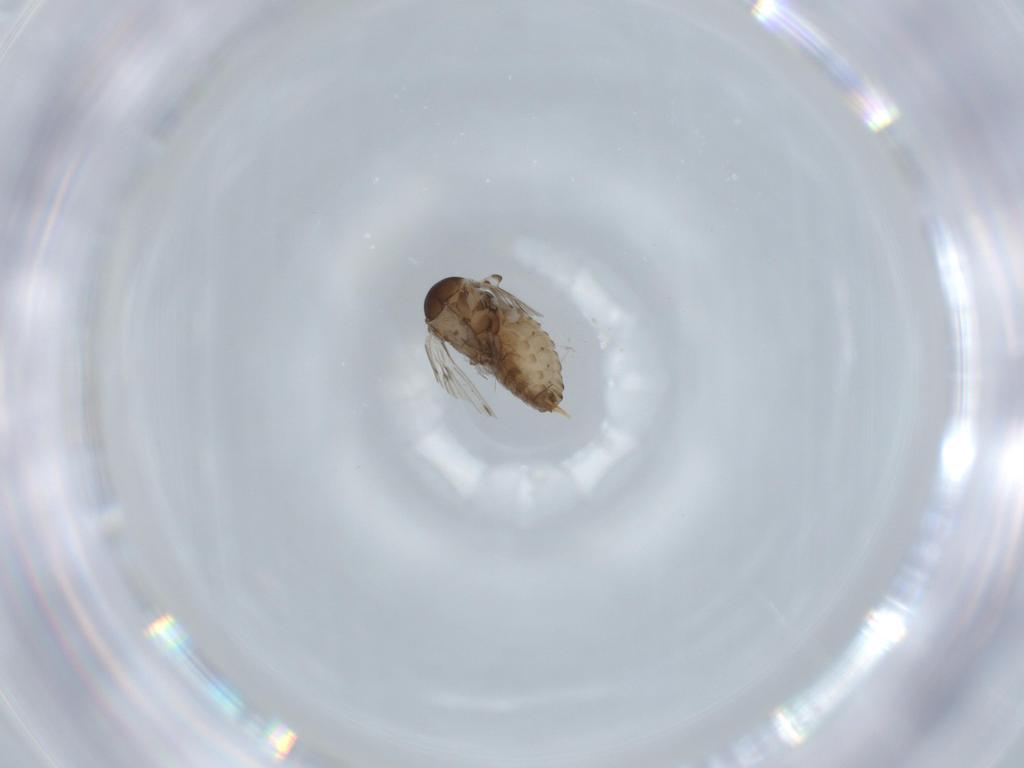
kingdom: Animalia
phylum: Arthropoda
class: Insecta
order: Diptera
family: Psychodidae
